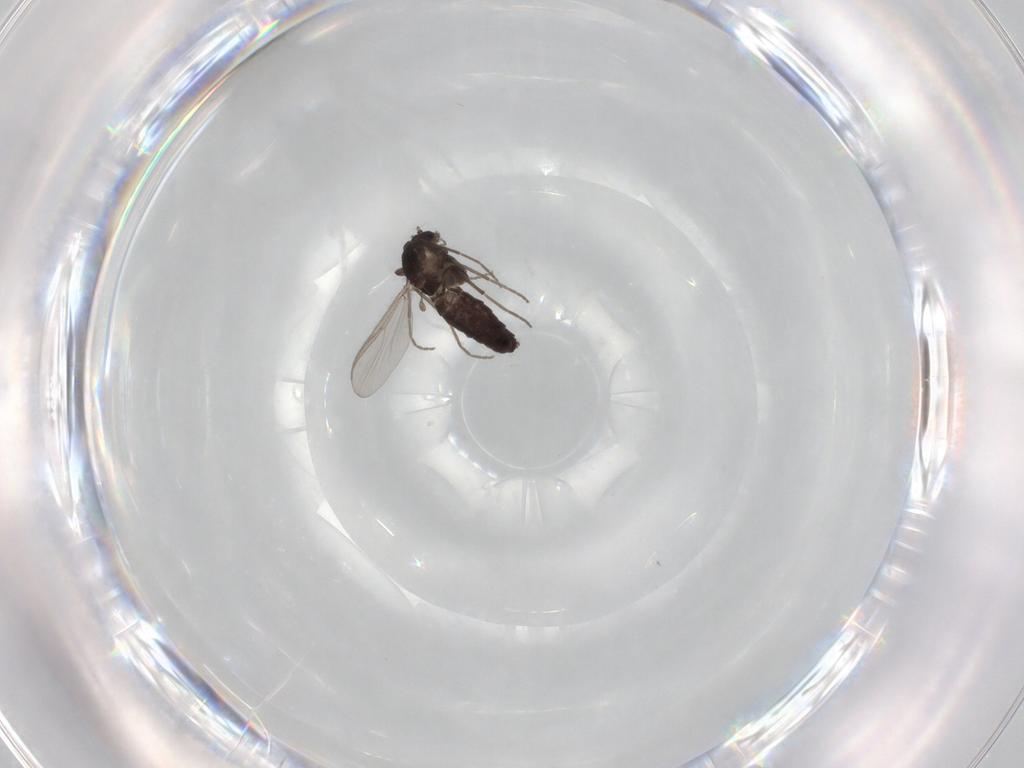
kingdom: Animalia
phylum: Arthropoda
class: Insecta
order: Diptera
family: Chironomidae
